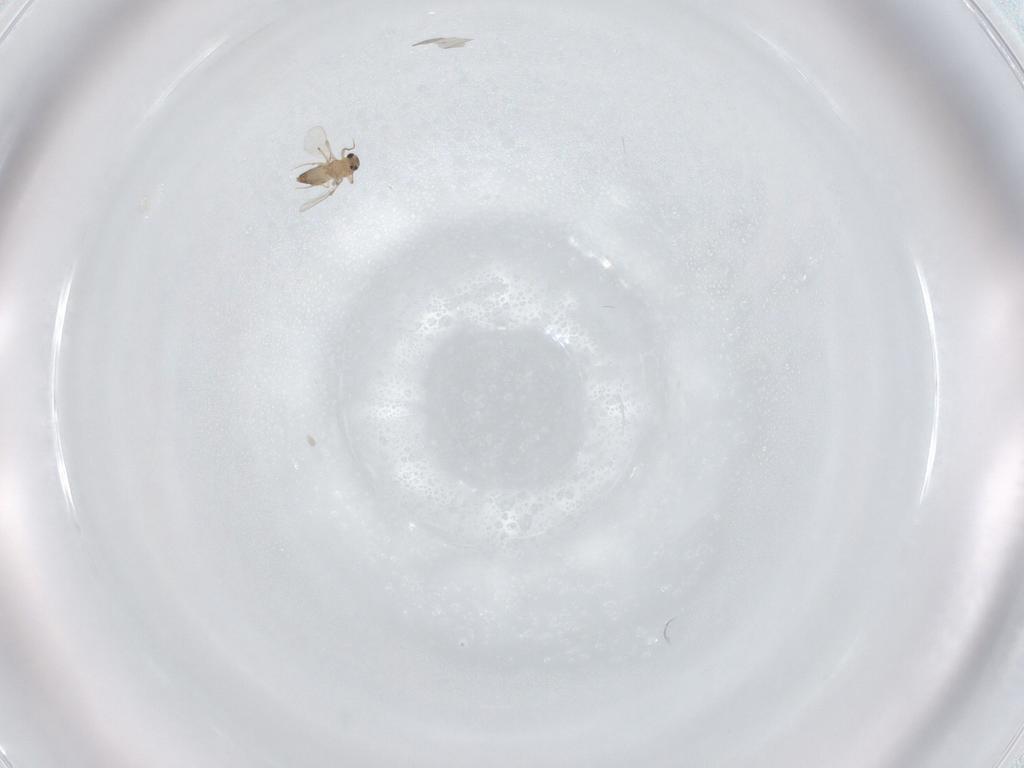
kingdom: Animalia
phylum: Arthropoda
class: Insecta
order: Diptera
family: Chironomidae
